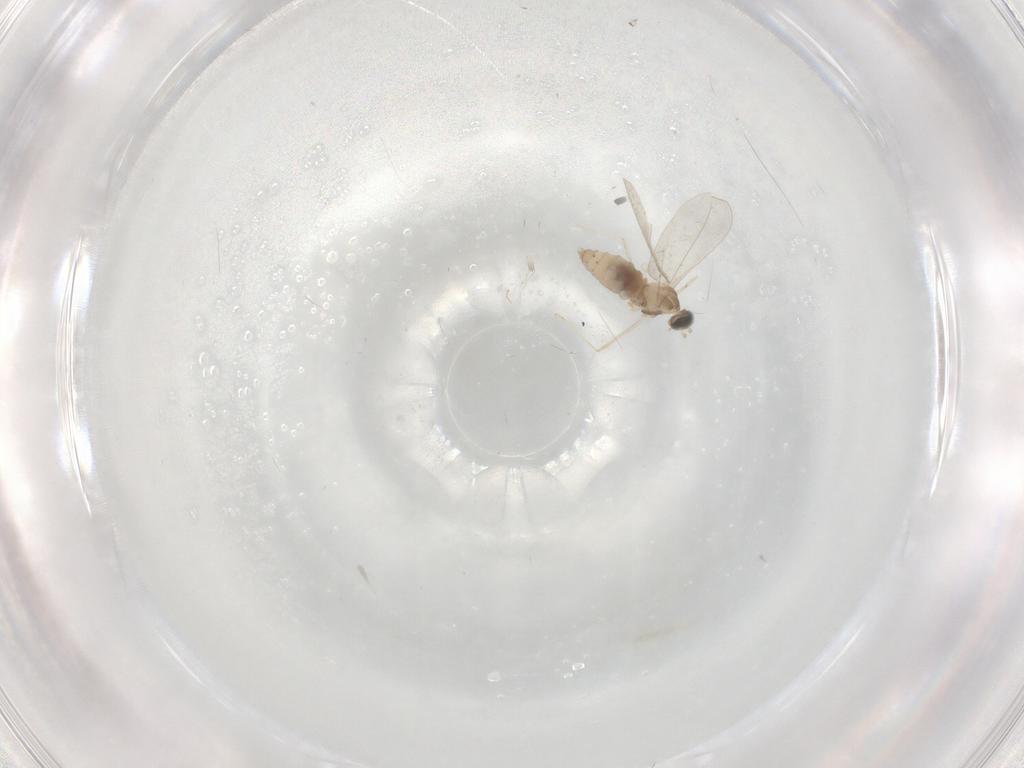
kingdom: Animalia
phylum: Arthropoda
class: Insecta
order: Diptera
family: Cecidomyiidae
